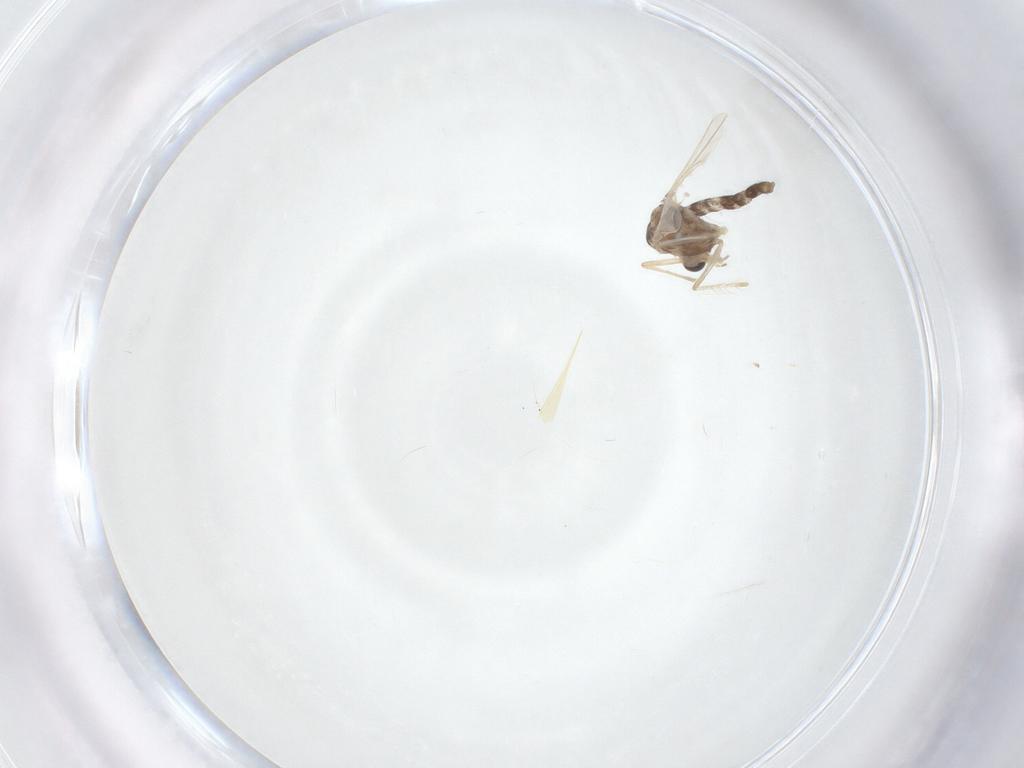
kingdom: Animalia
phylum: Arthropoda
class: Insecta
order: Diptera
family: Chironomidae
